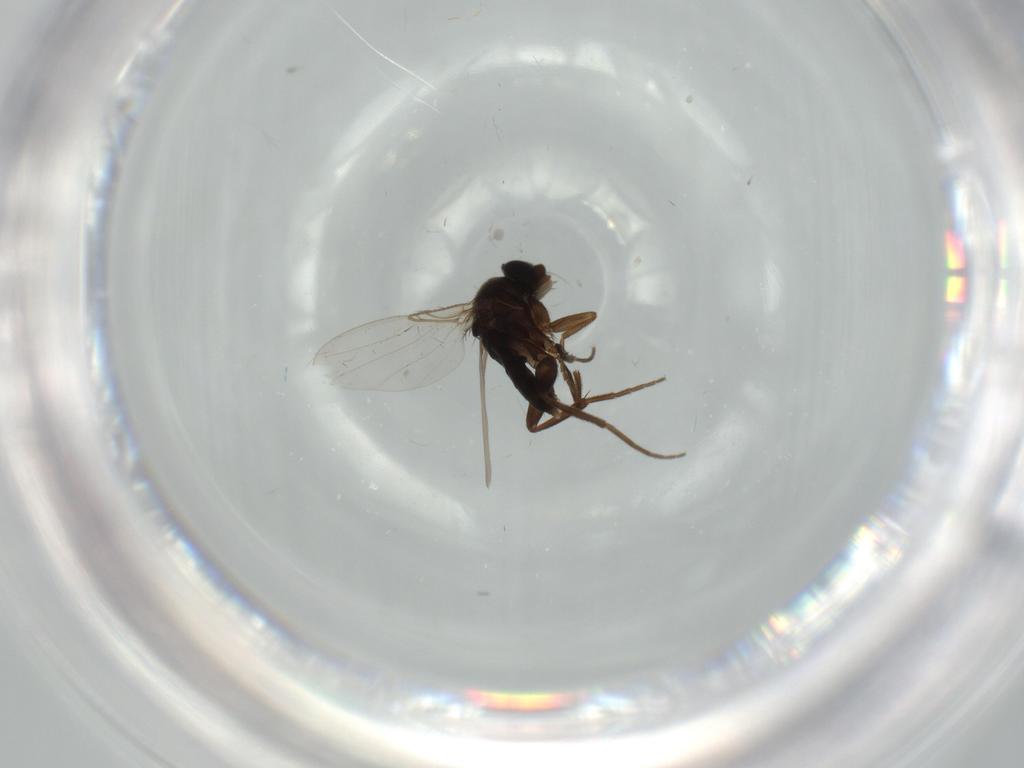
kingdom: Animalia
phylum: Arthropoda
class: Insecta
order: Diptera
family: Phoridae
